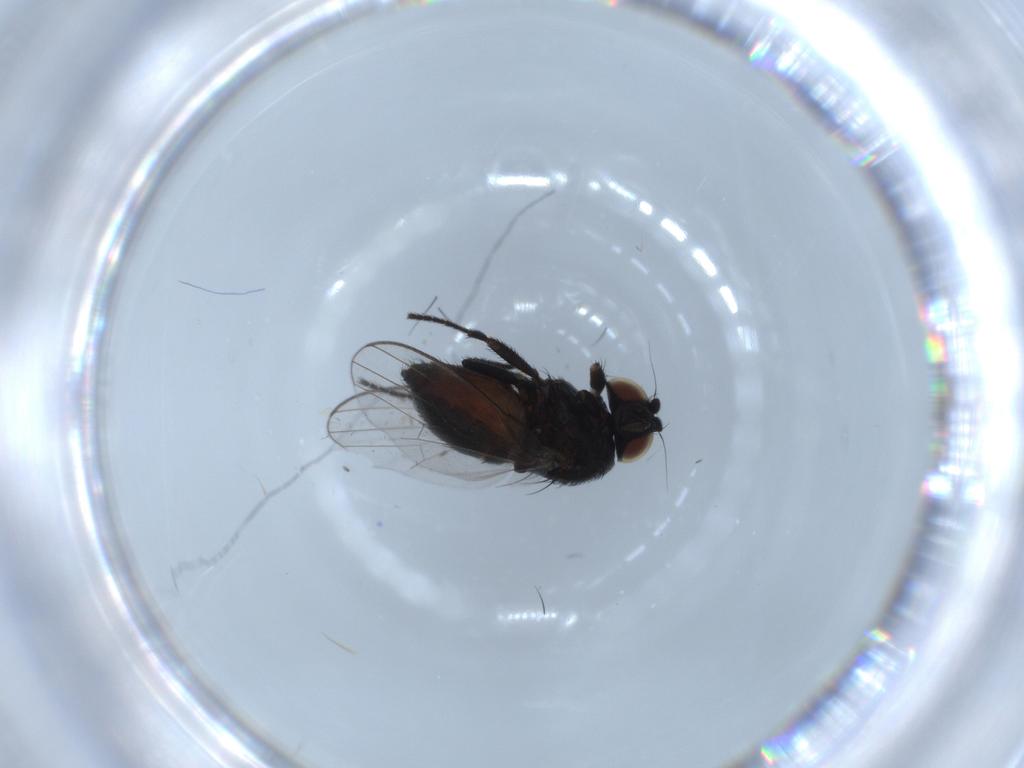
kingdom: Animalia
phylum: Arthropoda
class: Insecta
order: Diptera
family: Milichiidae
